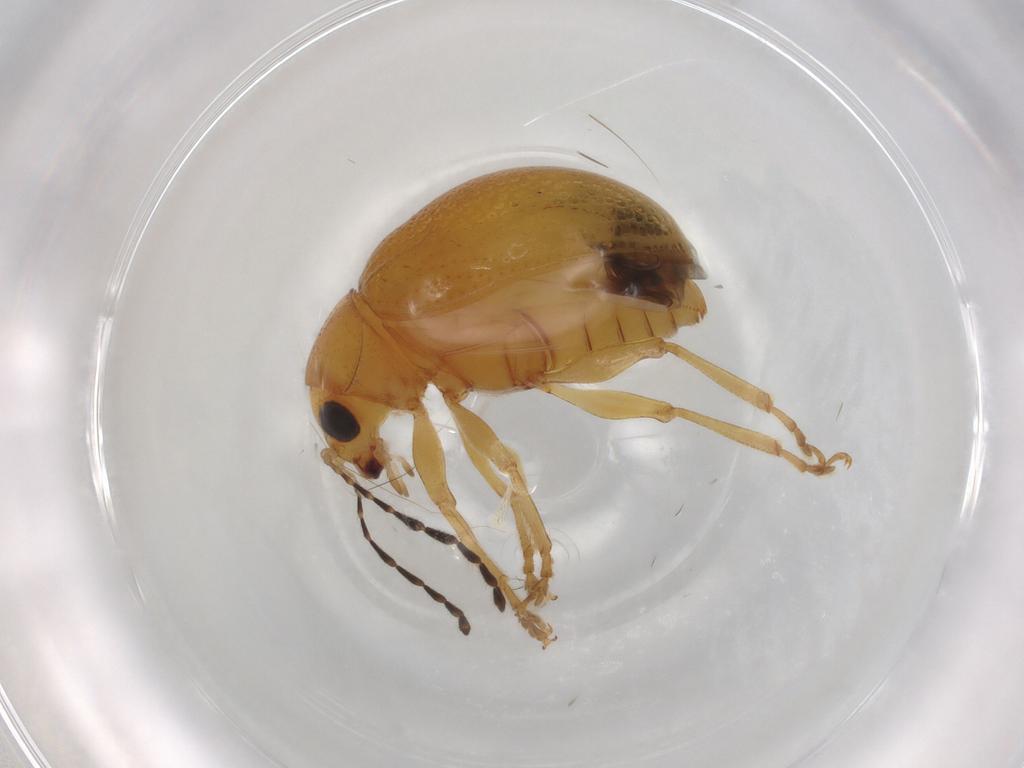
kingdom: Animalia
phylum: Arthropoda
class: Insecta
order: Coleoptera
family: Chrysomelidae
